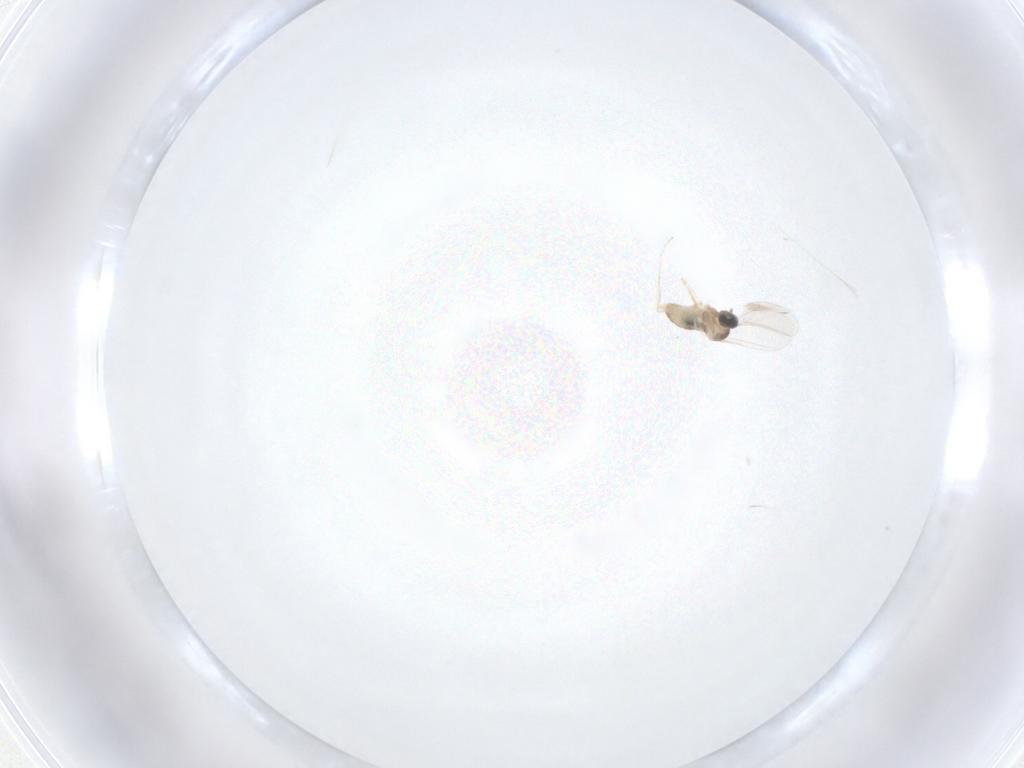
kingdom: Animalia
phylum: Arthropoda
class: Insecta
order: Diptera
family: Cecidomyiidae
